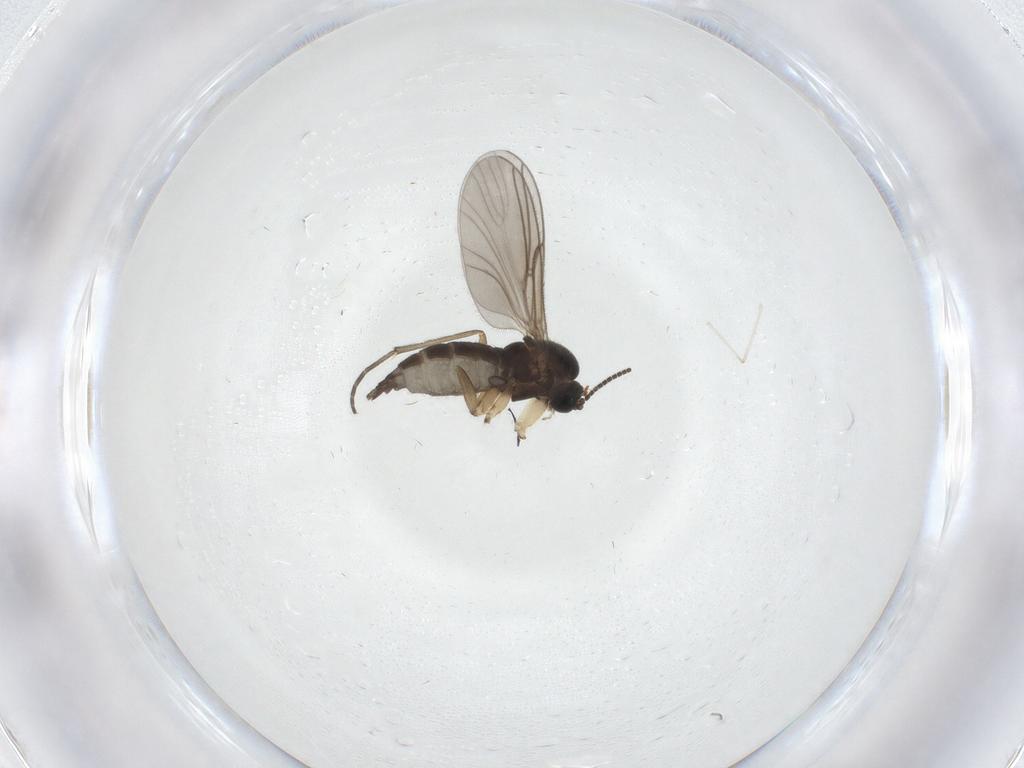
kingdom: Animalia
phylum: Arthropoda
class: Insecta
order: Diptera
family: Sciaridae
